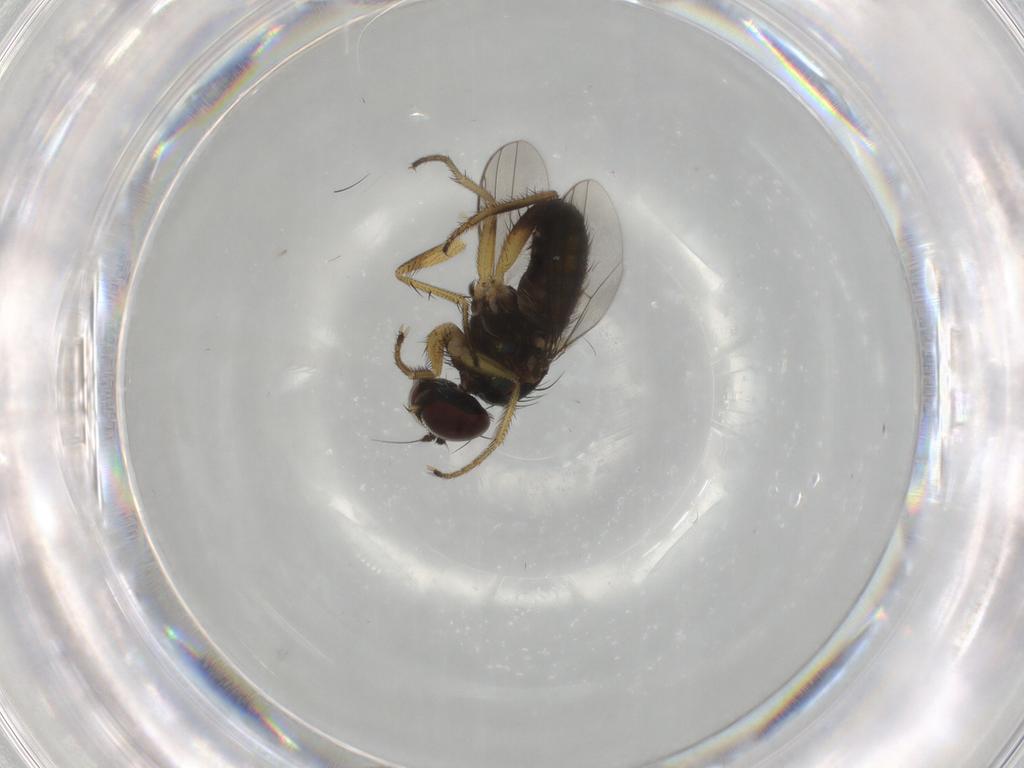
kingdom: Animalia
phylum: Arthropoda
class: Insecta
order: Diptera
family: Dolichopodidae
